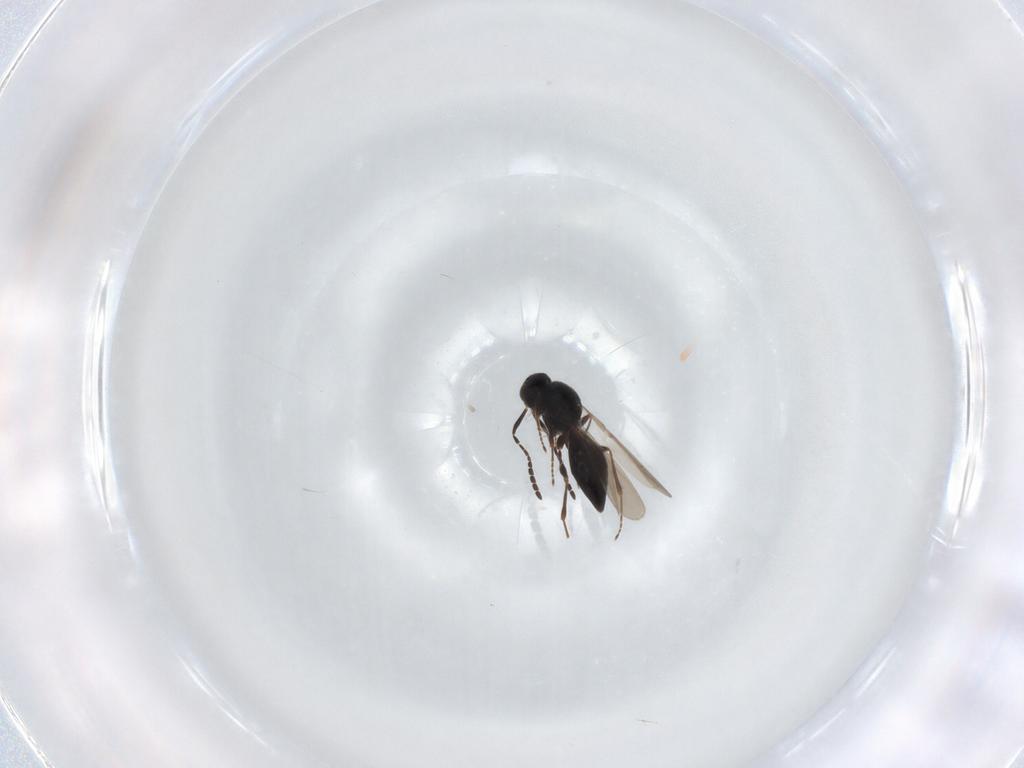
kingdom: Animalia
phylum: Arthropoda
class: Insecta
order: Hymenoptera
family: Platygastridae
